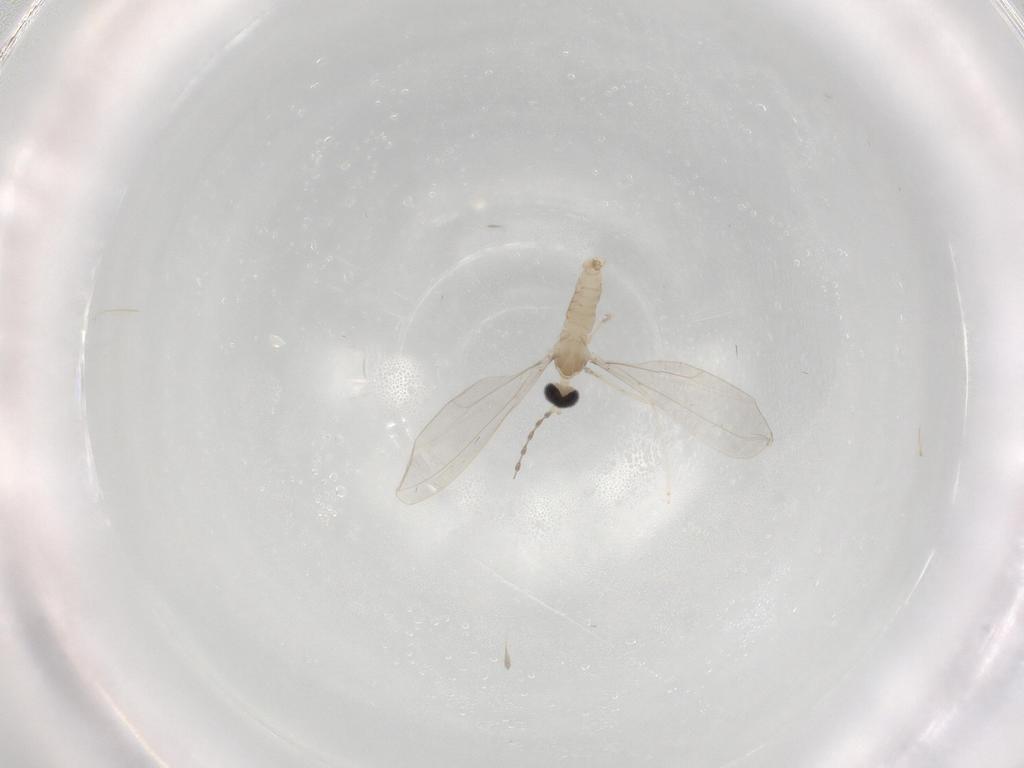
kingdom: Animalia
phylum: Arthropoda
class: Insecta
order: Diptera
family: Cecidomyiidae
